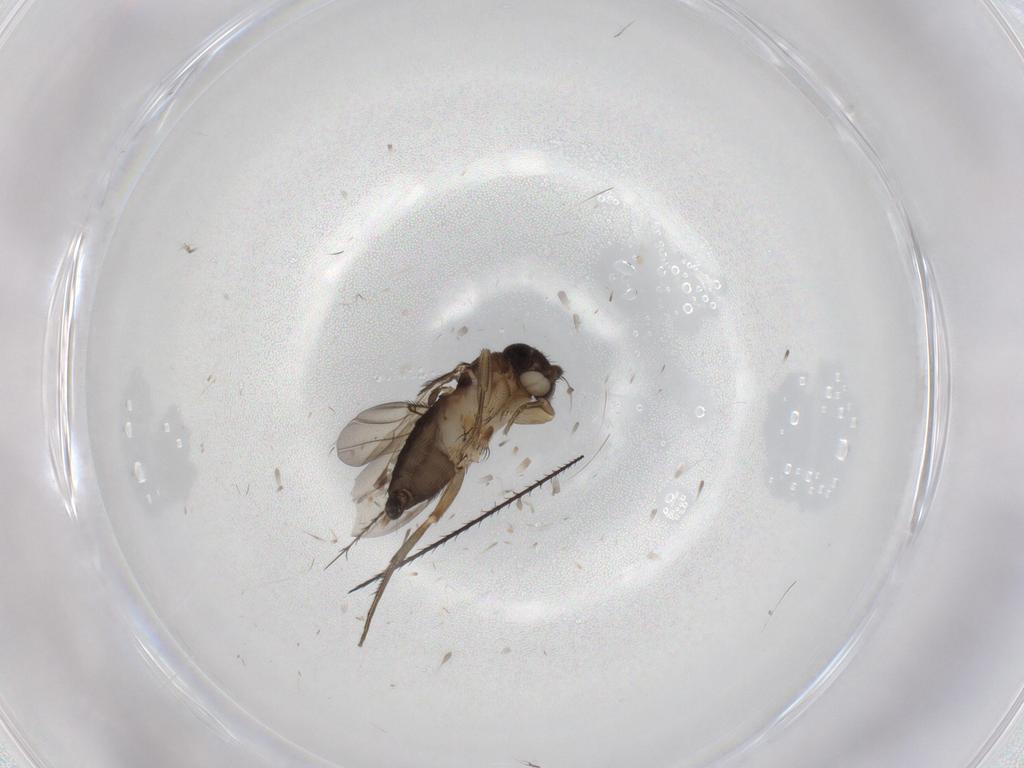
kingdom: Animalia
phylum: Arthropoda
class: Insecta
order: Diptera
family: Phoridae
